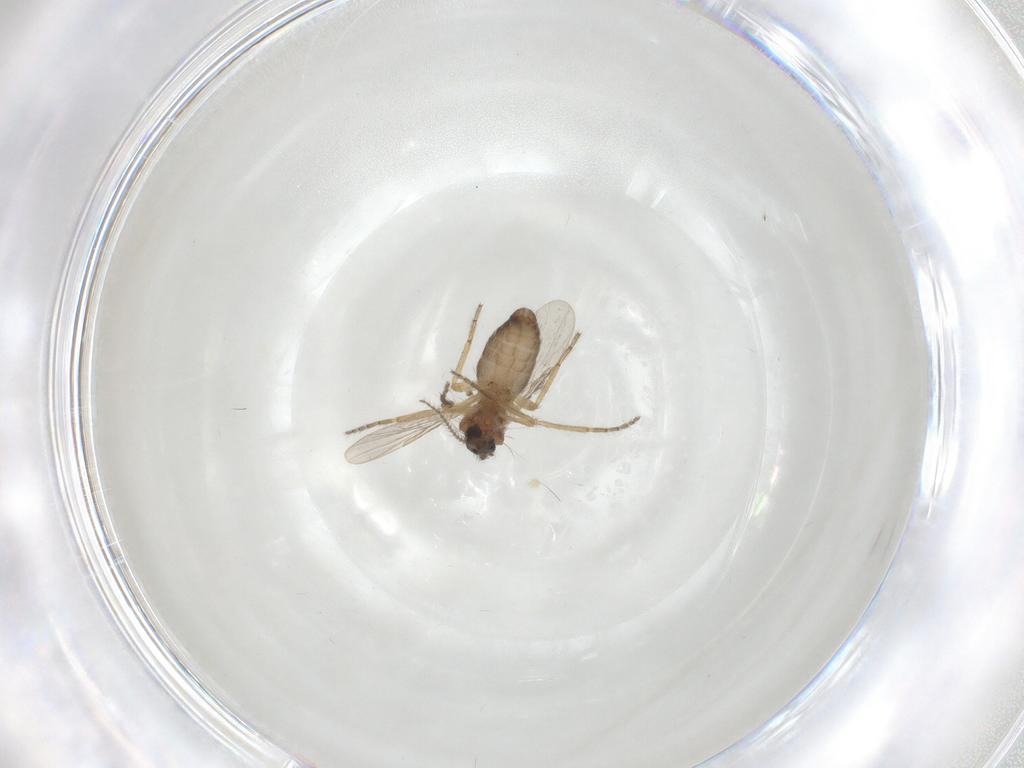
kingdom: Animalia
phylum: Arthropoda
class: Insecta
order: Diptera
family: Ceratopogonidae
